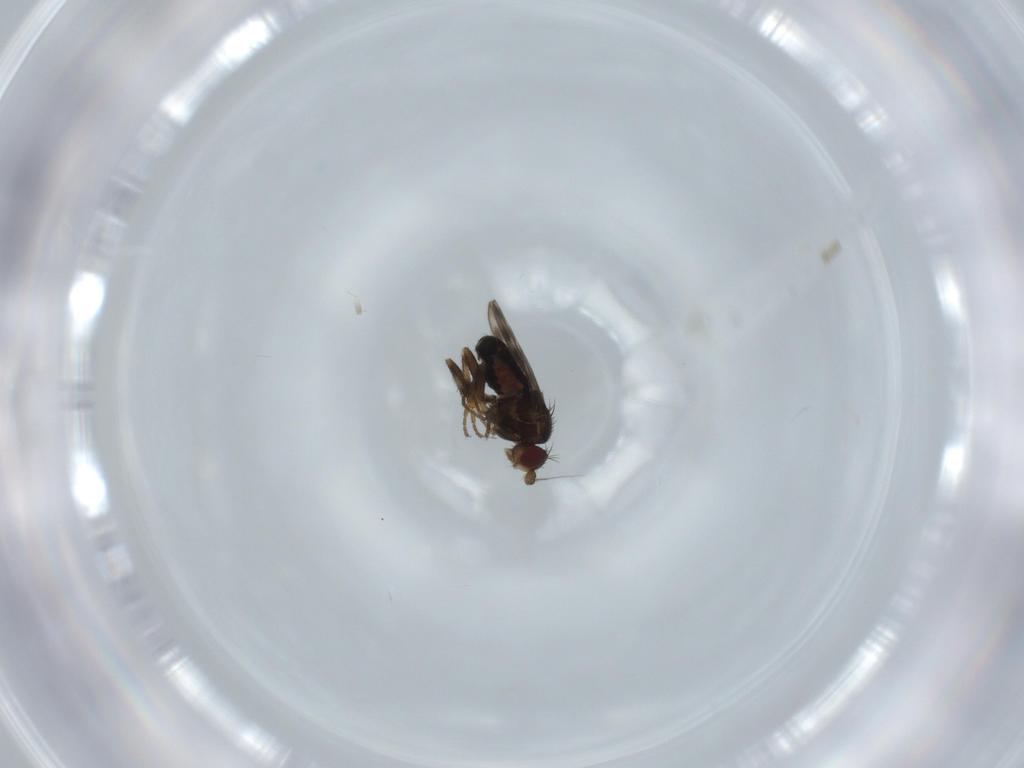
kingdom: Animalia
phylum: Arthropoda
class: Insecta
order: Diptera
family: Sphaeroceridae
